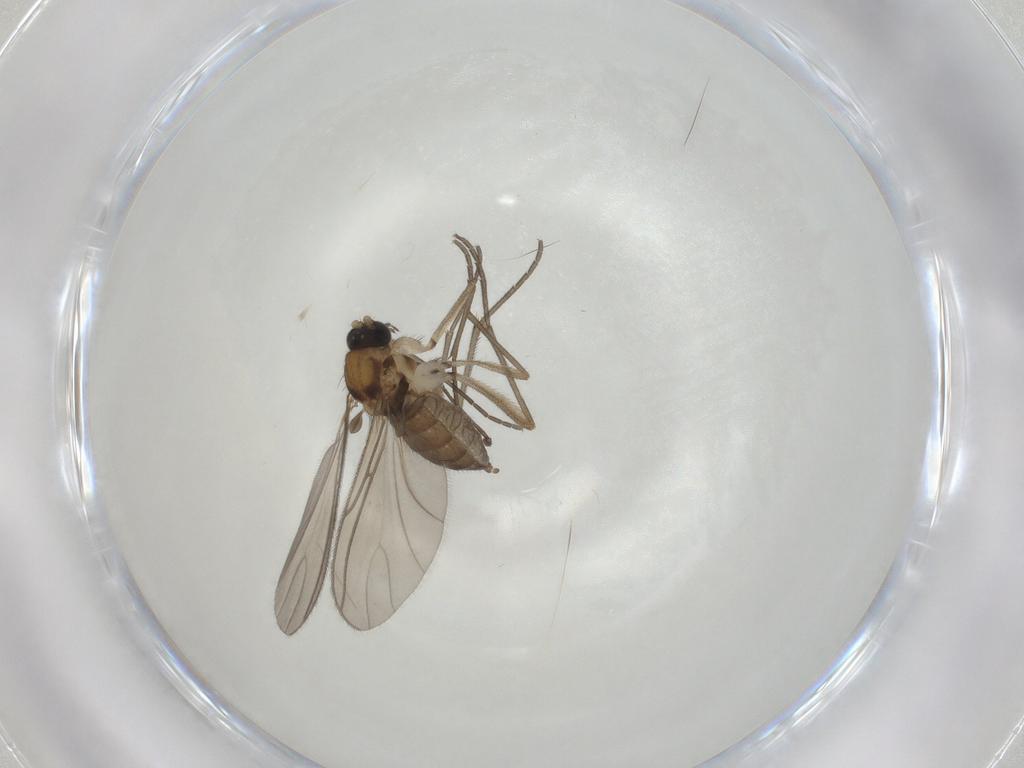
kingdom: Animalia
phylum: Arthropoda
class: Insecta
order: Diptera
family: Sciaridae
